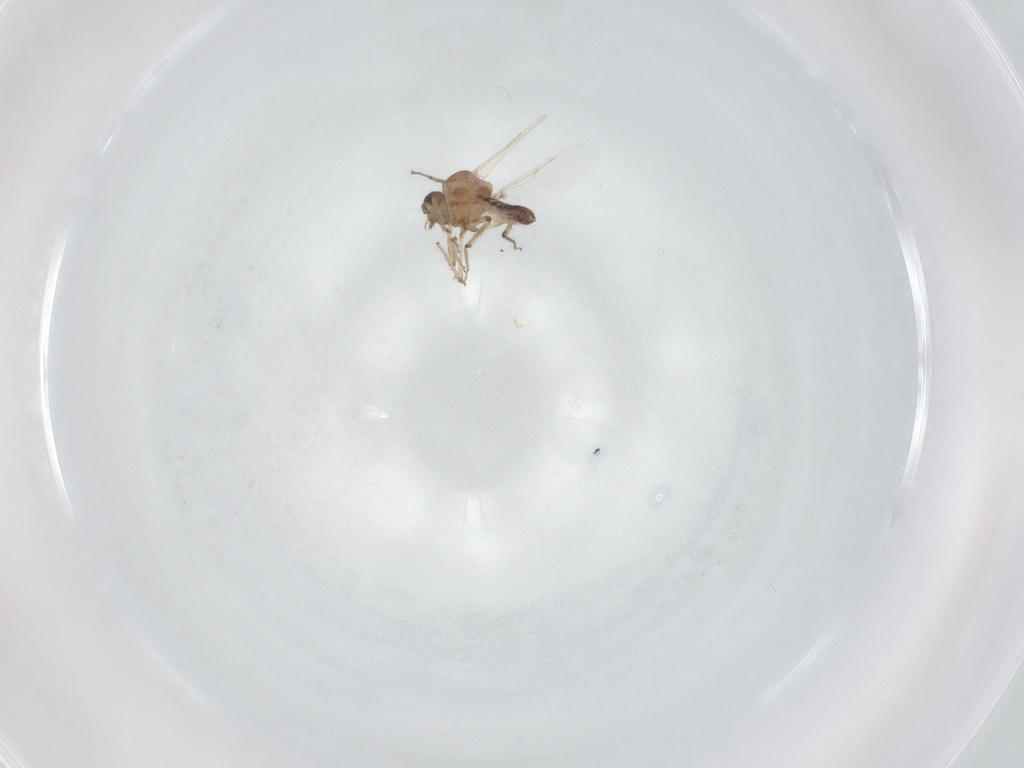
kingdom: Animalia
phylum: Arthropoda
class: Insecta
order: Diptera
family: Ceratopogonidae
